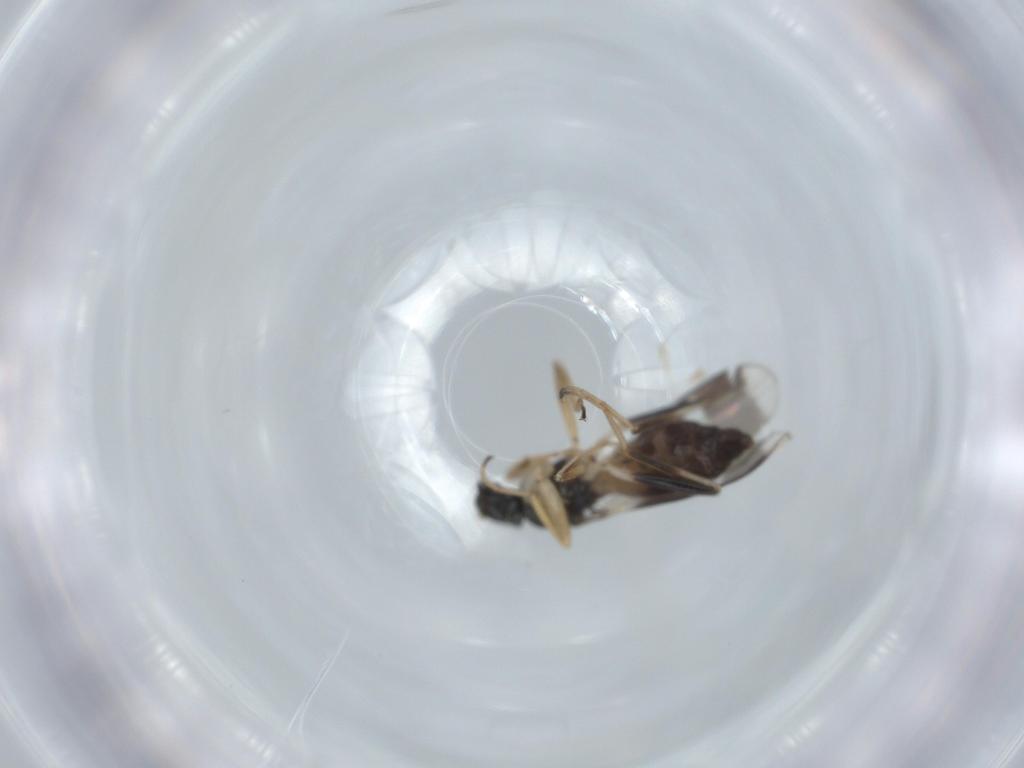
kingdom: Animalia
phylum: Arthropoda
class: Insecta
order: Diptera
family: Hybotidae
